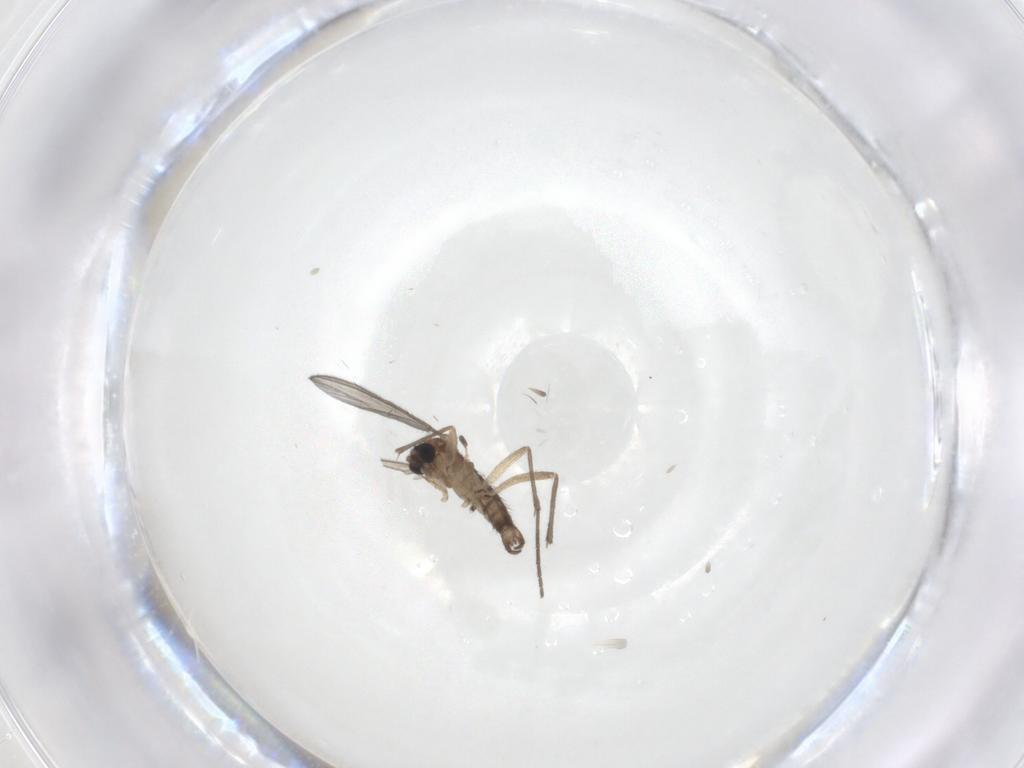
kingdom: Animalia
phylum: Arthropoda
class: Insecta
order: Diptera
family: Sciaridae
